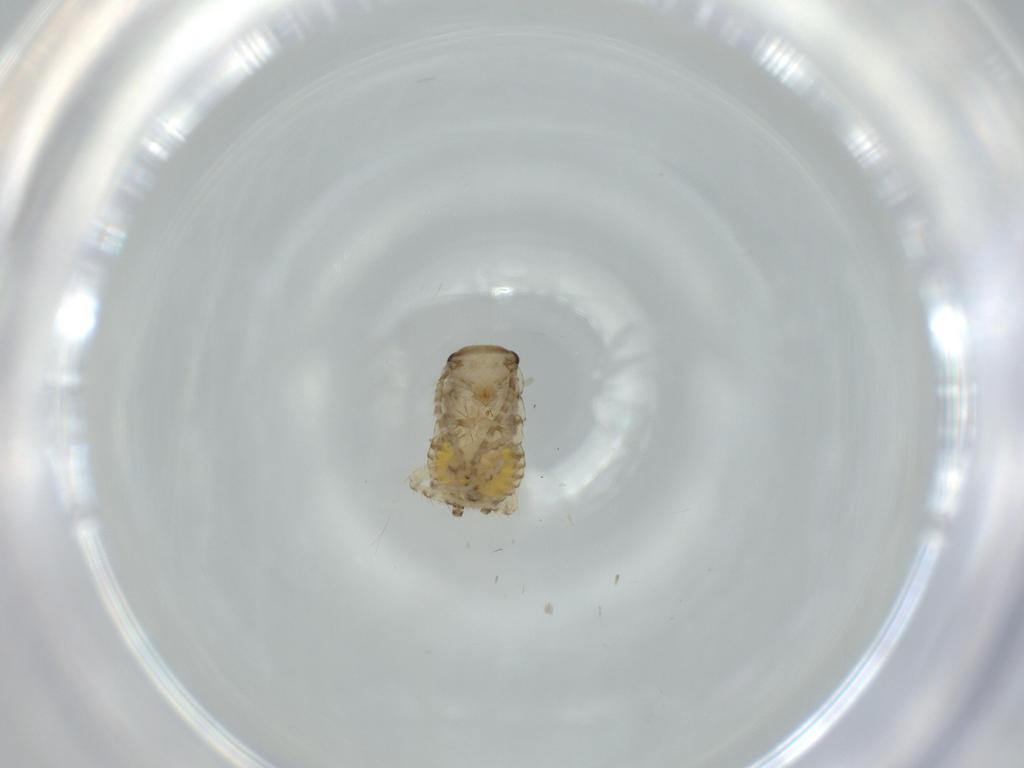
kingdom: Animalia
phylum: Arthropoda
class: Insecta
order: Blattodea
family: Ectobiidae
